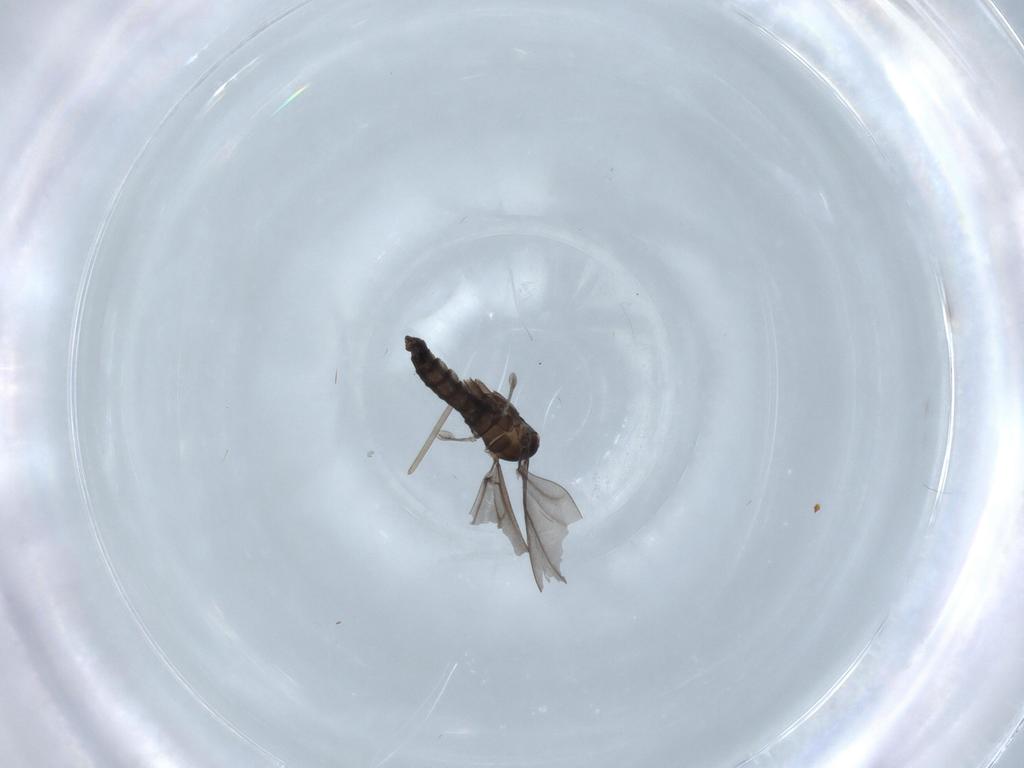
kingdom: Animalia
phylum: Arthropoda
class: Insecta
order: Diptera
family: Cecidomyiidae
